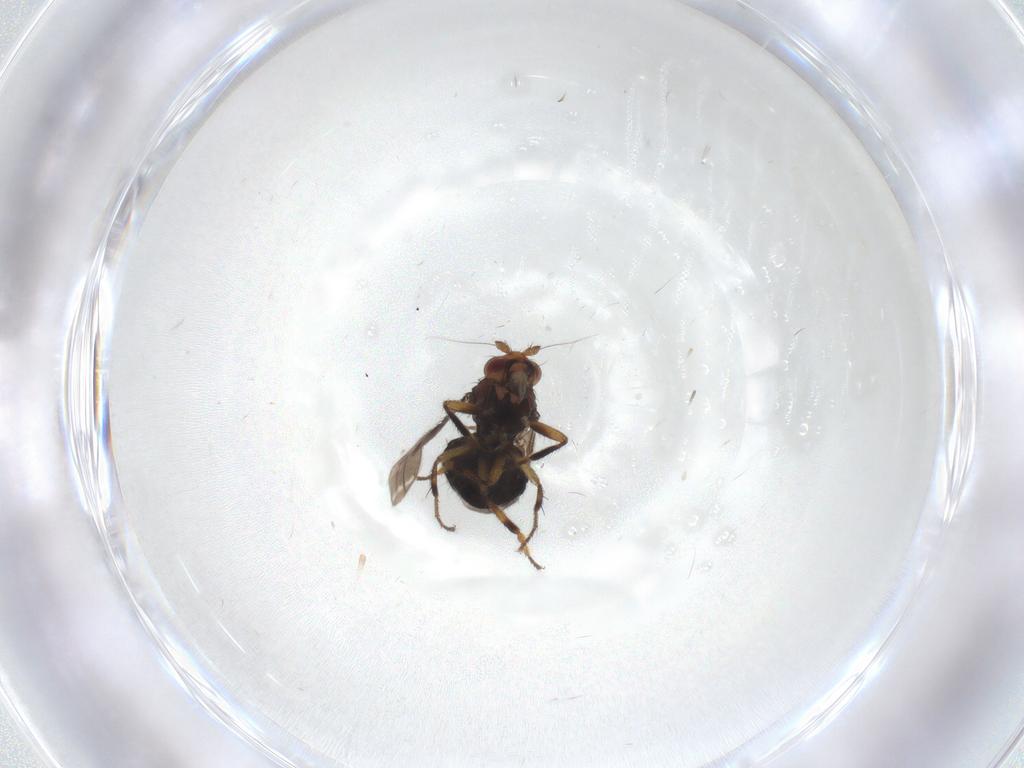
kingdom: Animalia
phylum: Arthropoda
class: Insecta
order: Diptera
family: Sphaeroceridae
